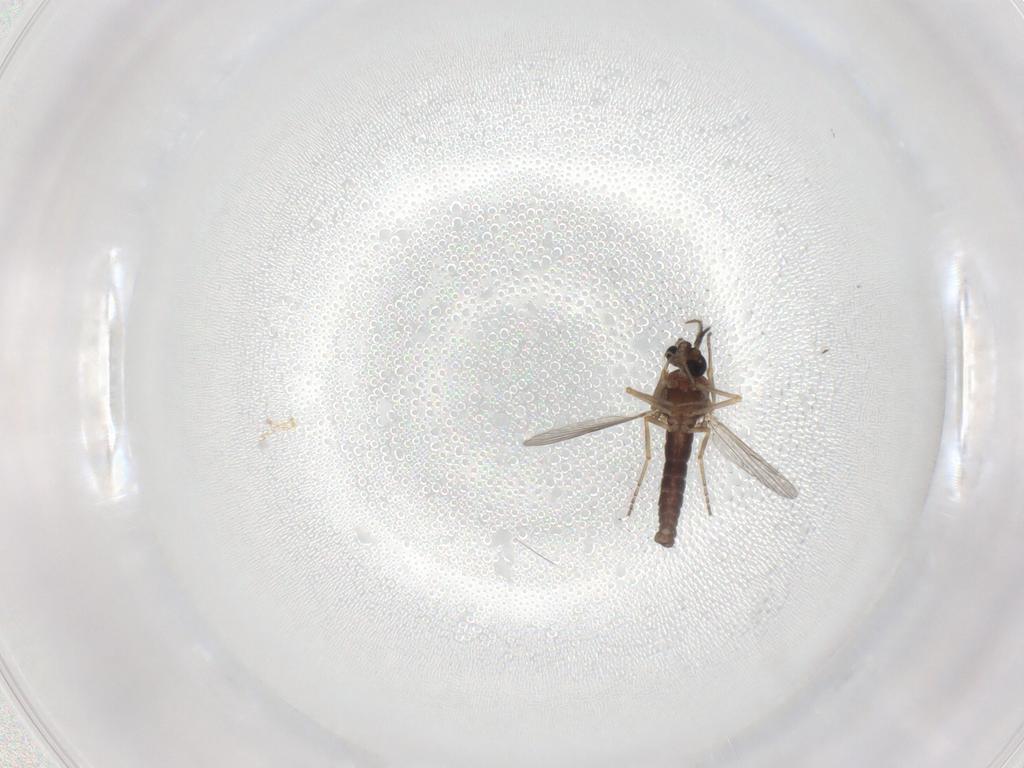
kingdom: Animalia
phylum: Arthropoda
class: Insecta
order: Diptera
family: Ceratopogonidae
